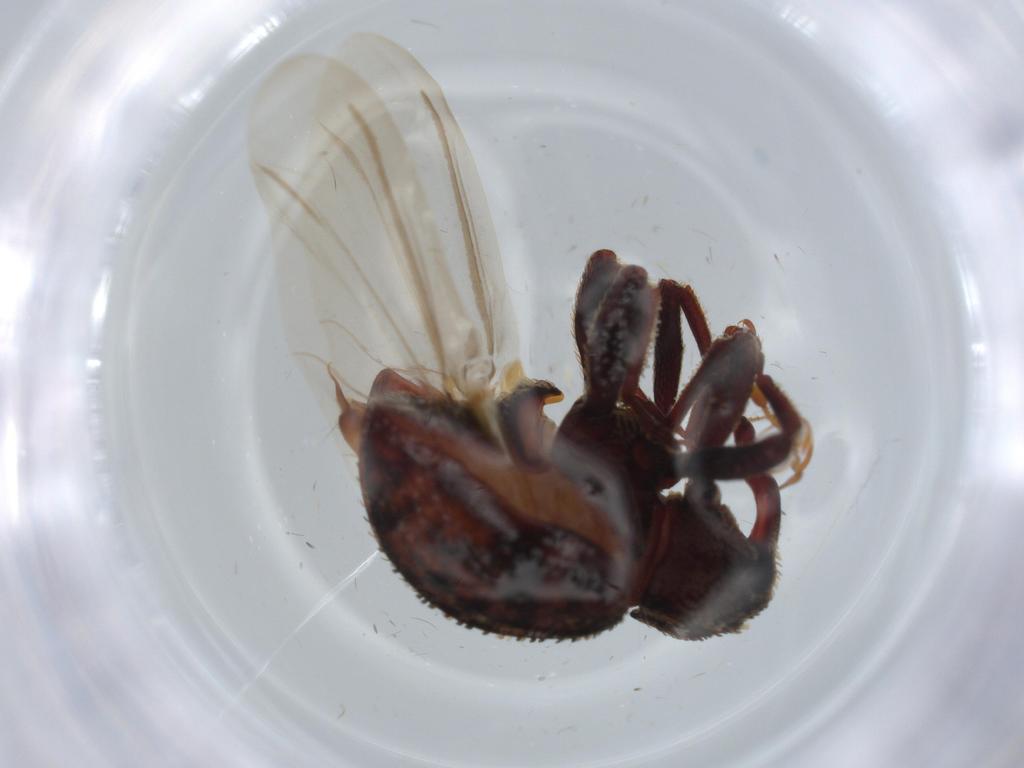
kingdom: Animalia
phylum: Arthropoda
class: Insecta
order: Coleoptera
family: Curculionidae
